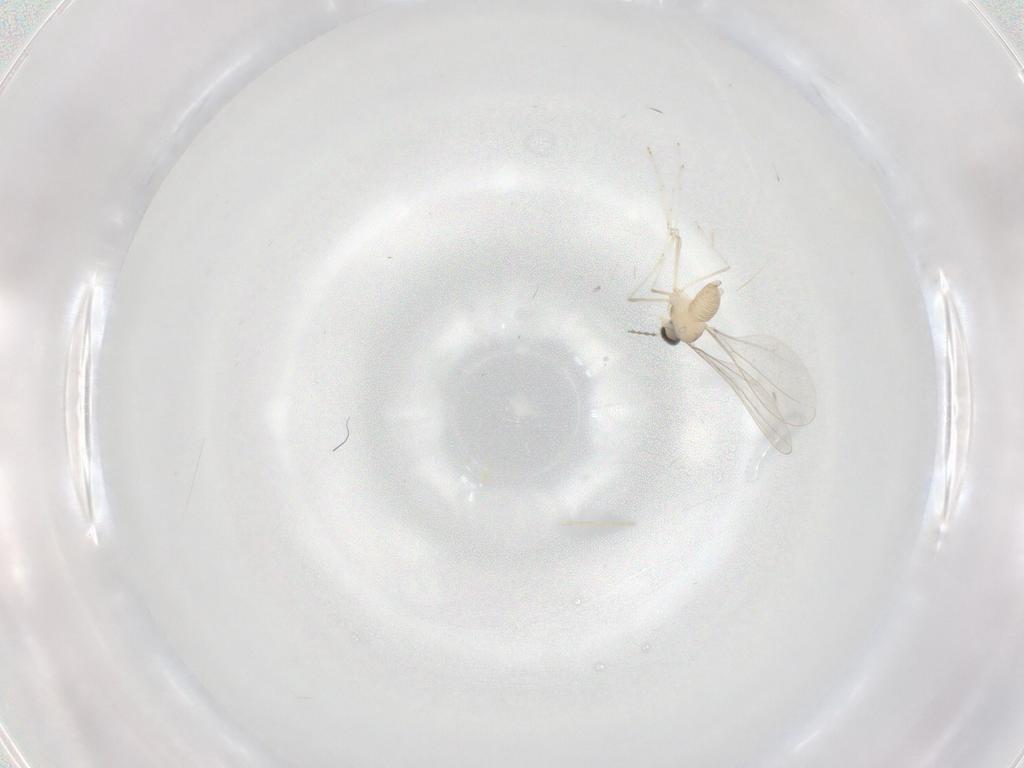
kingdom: Animalia
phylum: Arthropoda
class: Insecta
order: Diptera
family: Cecidomyiidae
